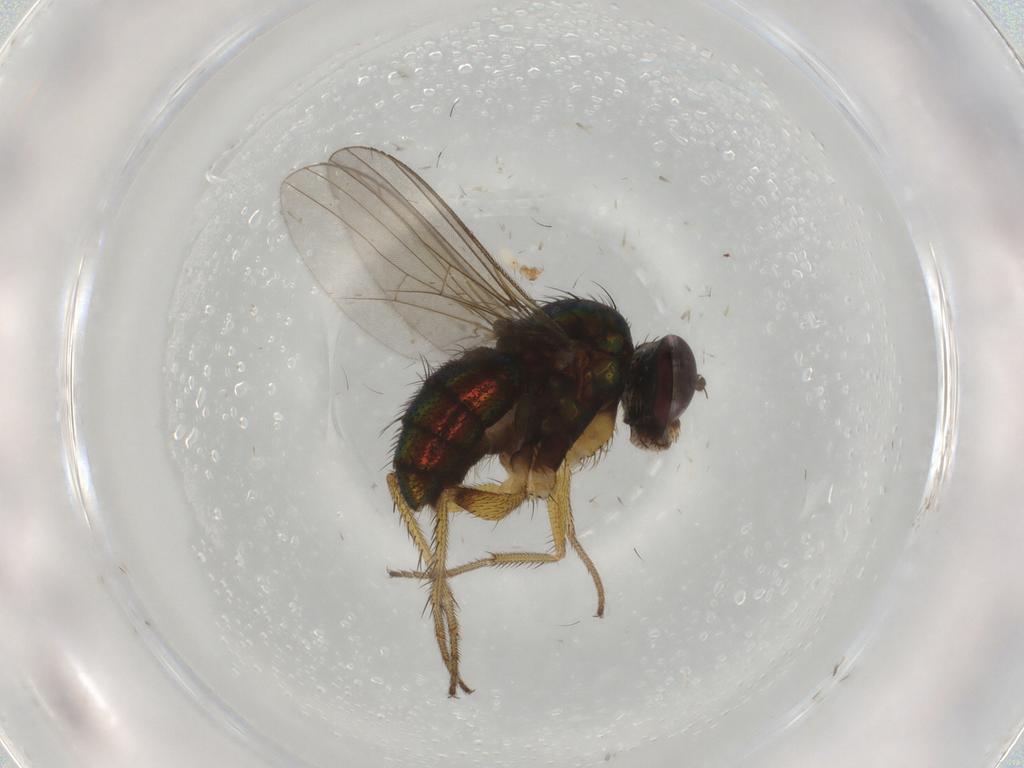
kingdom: Animalia
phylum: Arthropoda
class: Insecta
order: Diptera
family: Dolichopodidae
